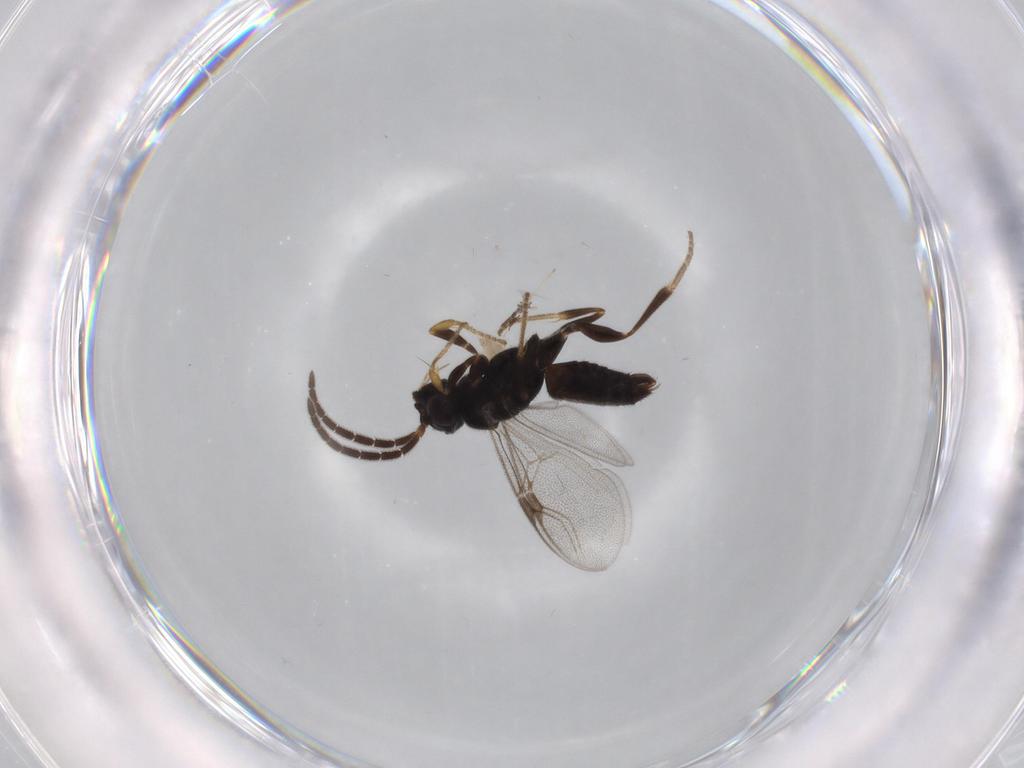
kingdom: Animalia
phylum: Arthropoda
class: Insecta
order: Hymenoptera
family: Dryinidae
